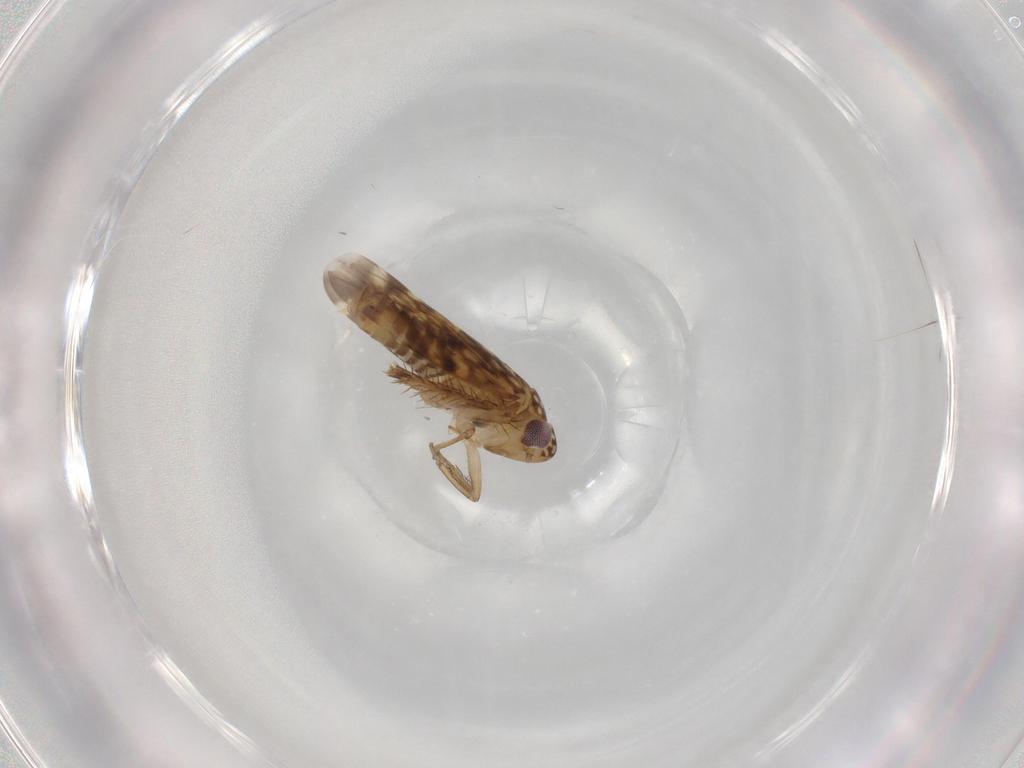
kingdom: Animalia
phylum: Arthropoda
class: Insecta
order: Hemiptera
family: Cicadellidae
